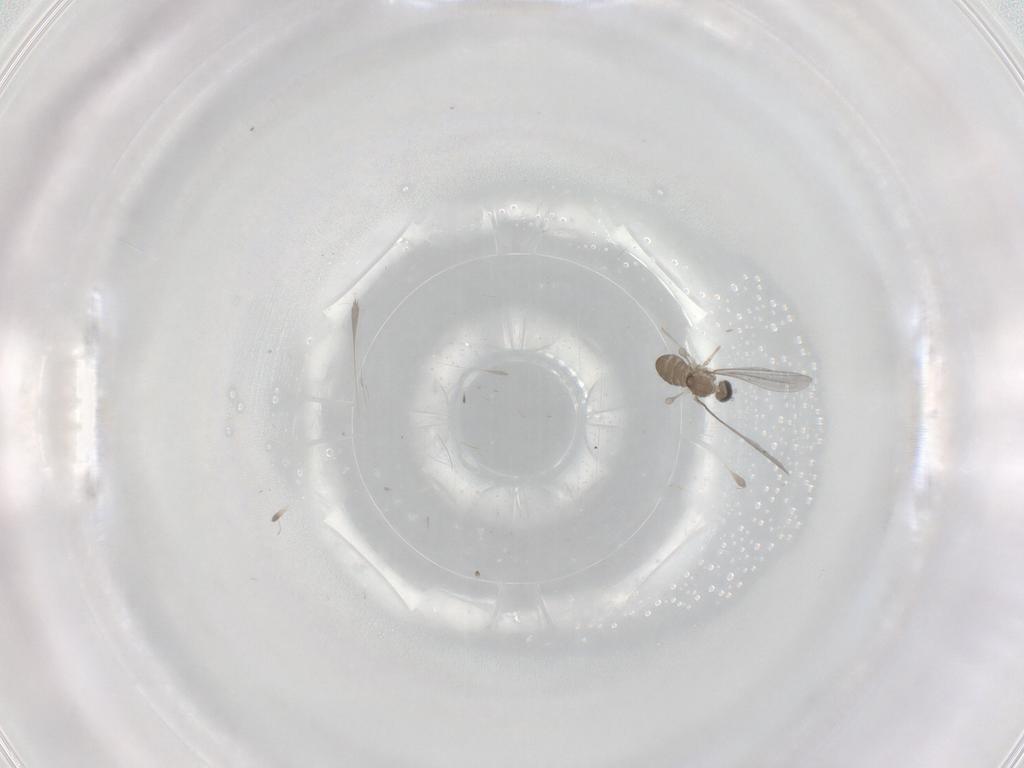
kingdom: Animalia
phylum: Arthropoda
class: Insecta
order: Diptera
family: Cecidomyiidae
